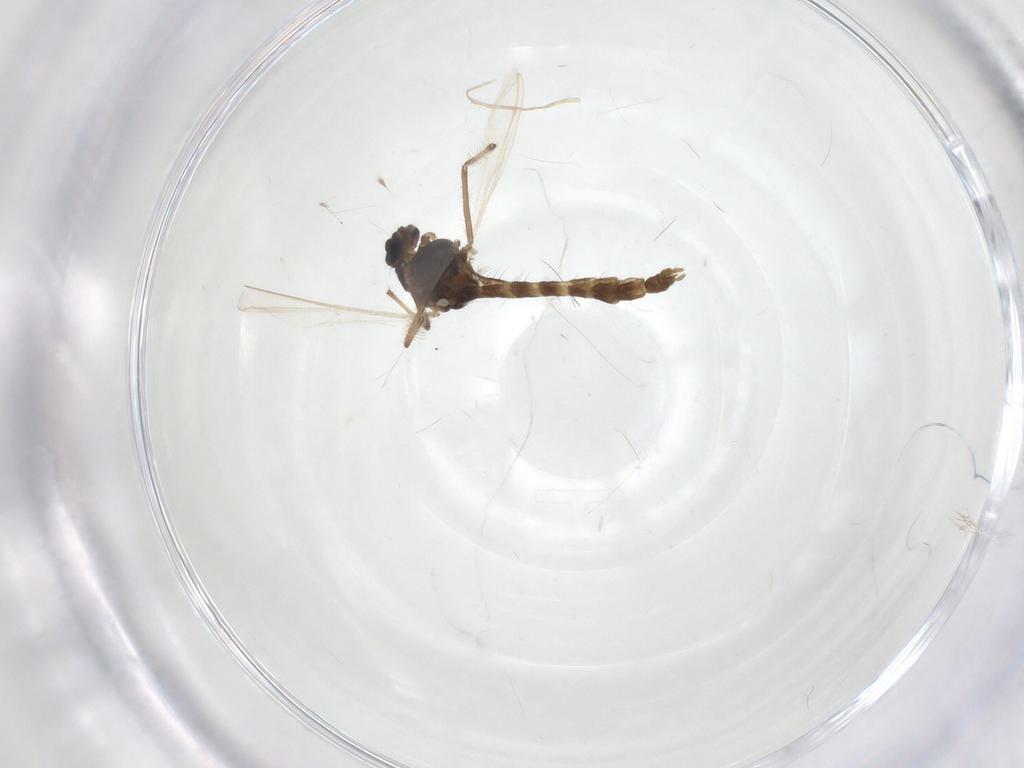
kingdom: Animalia
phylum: Arthropoda
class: Insecta
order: Diptera
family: Chironomidae
